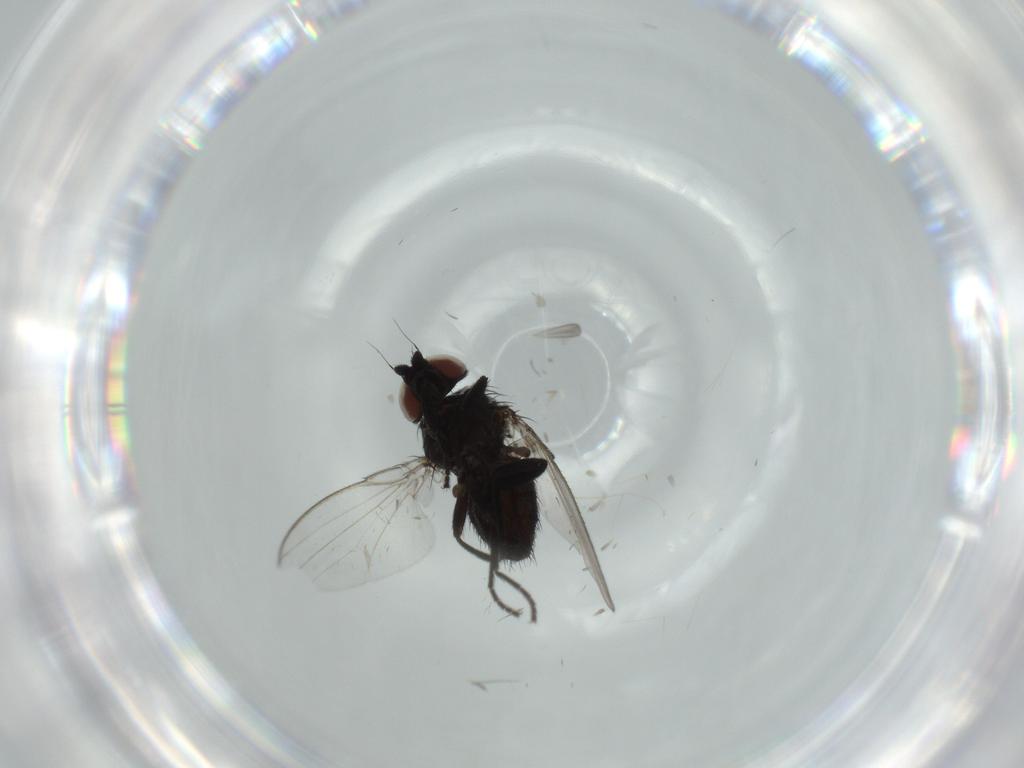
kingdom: Animalia
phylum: Arthropoda
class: Insecta
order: Diptera
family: Milichiidae
